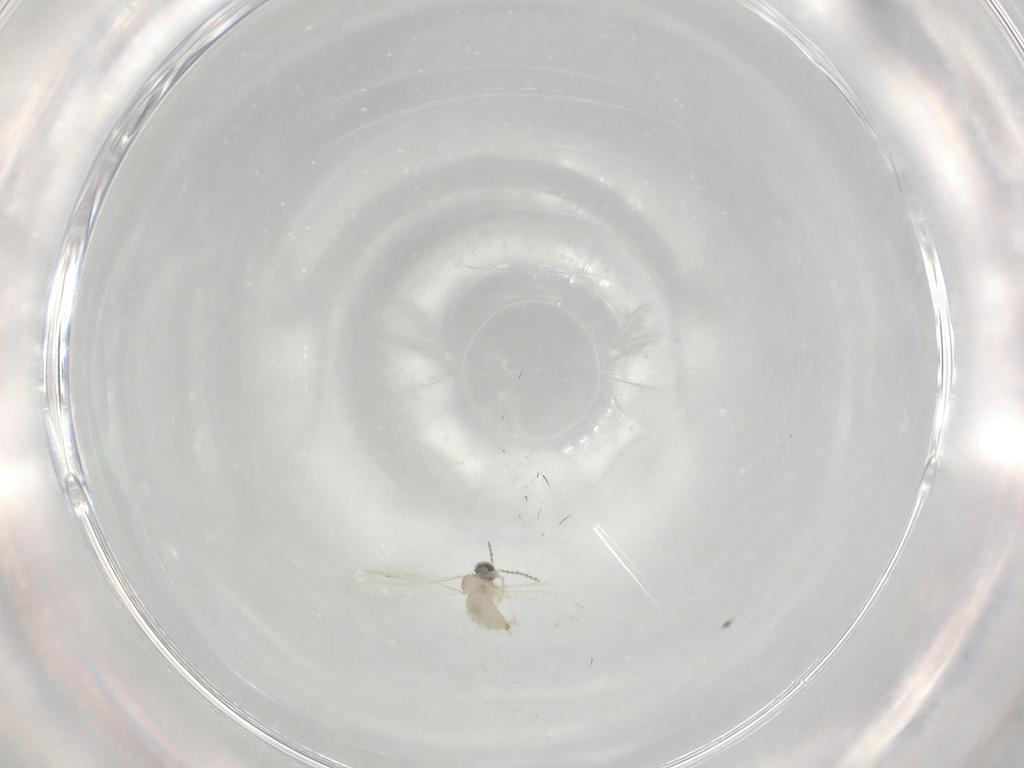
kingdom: Animalia
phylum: Arthropoda
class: Insecta
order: Diptera
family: Cecidomyiidae
